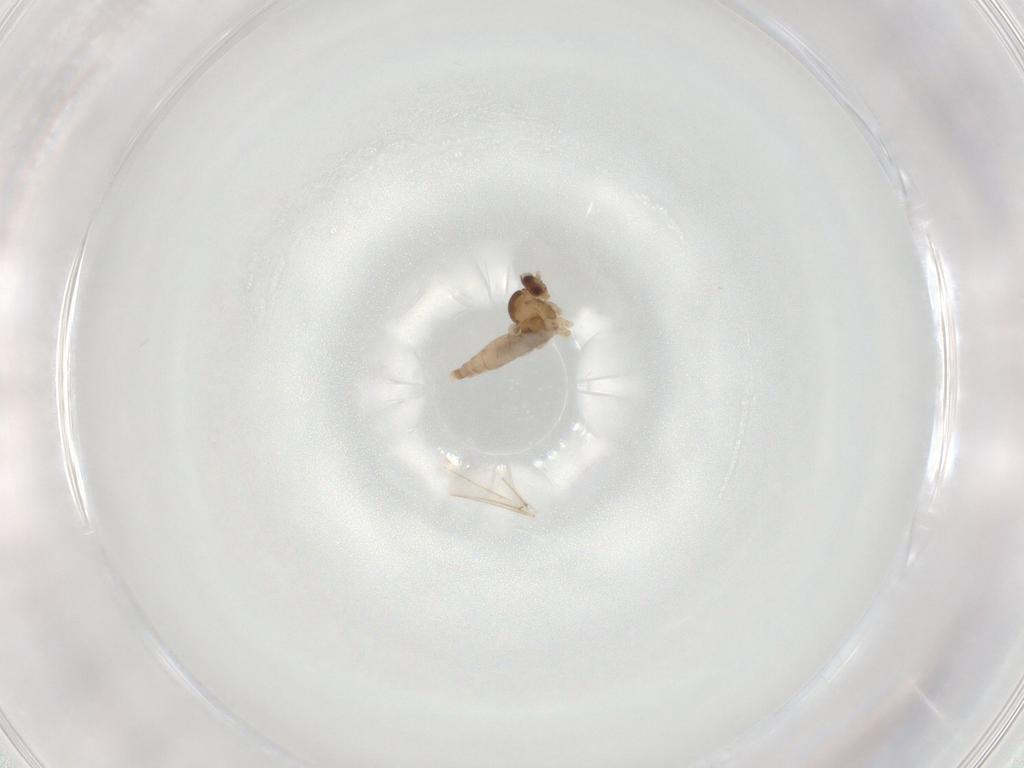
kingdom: Animalia
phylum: Arthropoda
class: Insecta
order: Diptera
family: Cecidomyiidae
